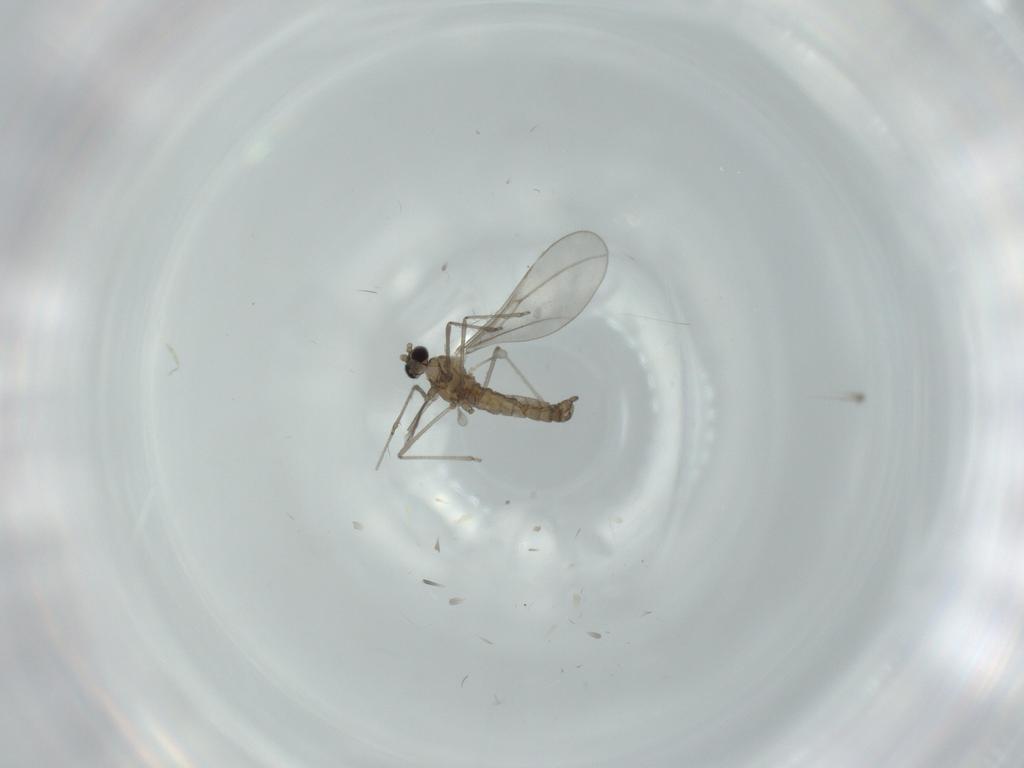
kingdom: Animalia
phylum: Arthropoda
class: Insecta
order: Diptera
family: Cecidomyiidae
